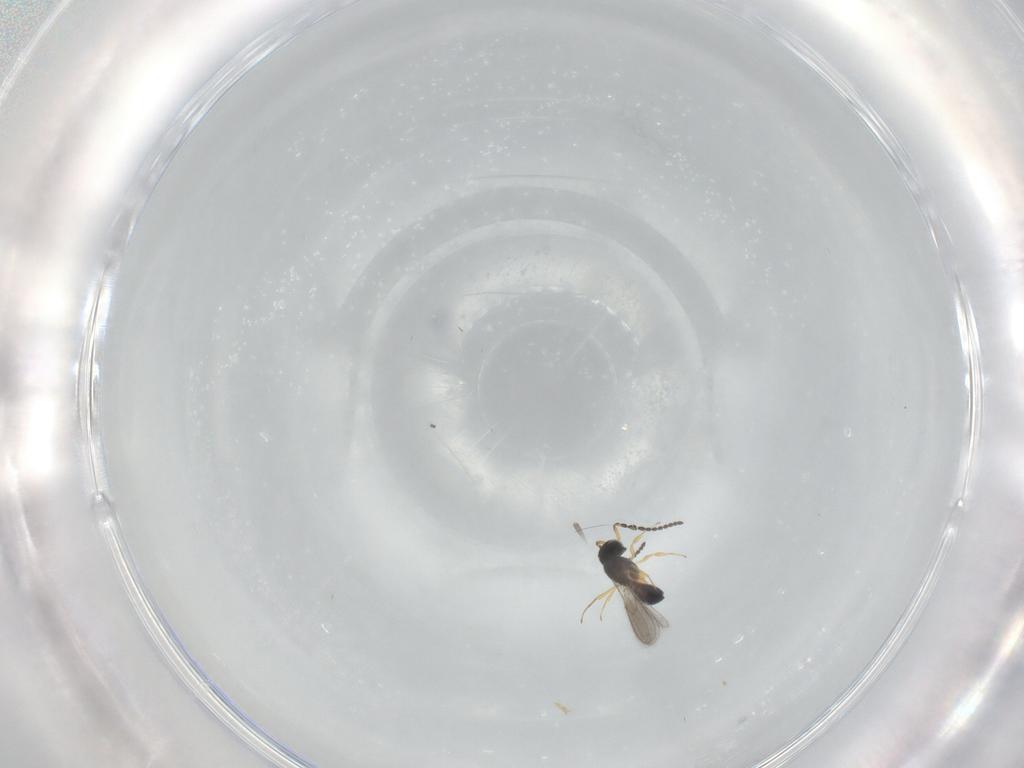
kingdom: Animalia
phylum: Arthropoda
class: Insecta
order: Hymenoptera
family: Scelionidae
